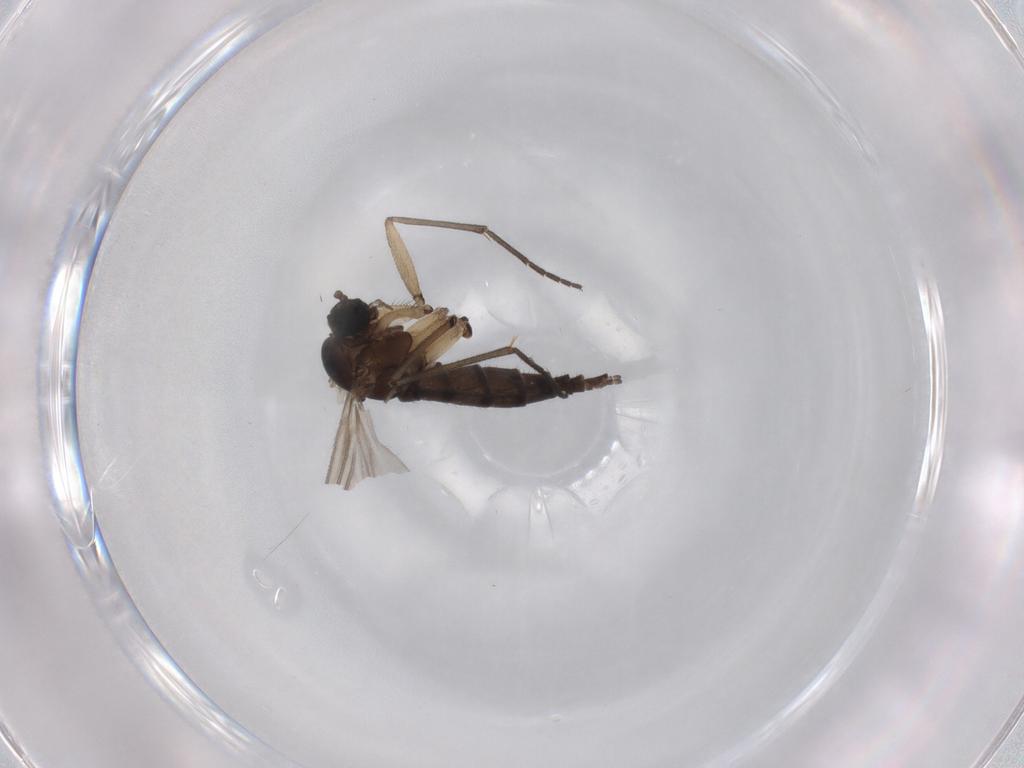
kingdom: Animalia
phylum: Arthropoda
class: Insecta
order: Diptera
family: Sciaridae
